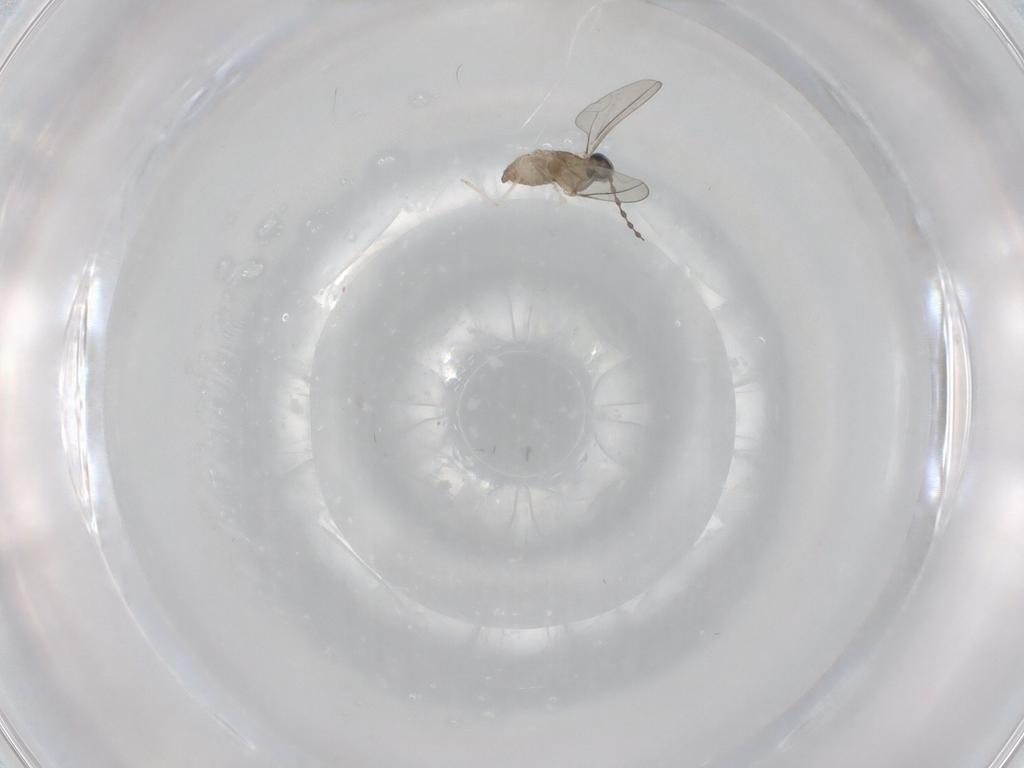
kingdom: Animalia
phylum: Arthropoda
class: Insecta
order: Diptera
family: Cecidomyiidae
